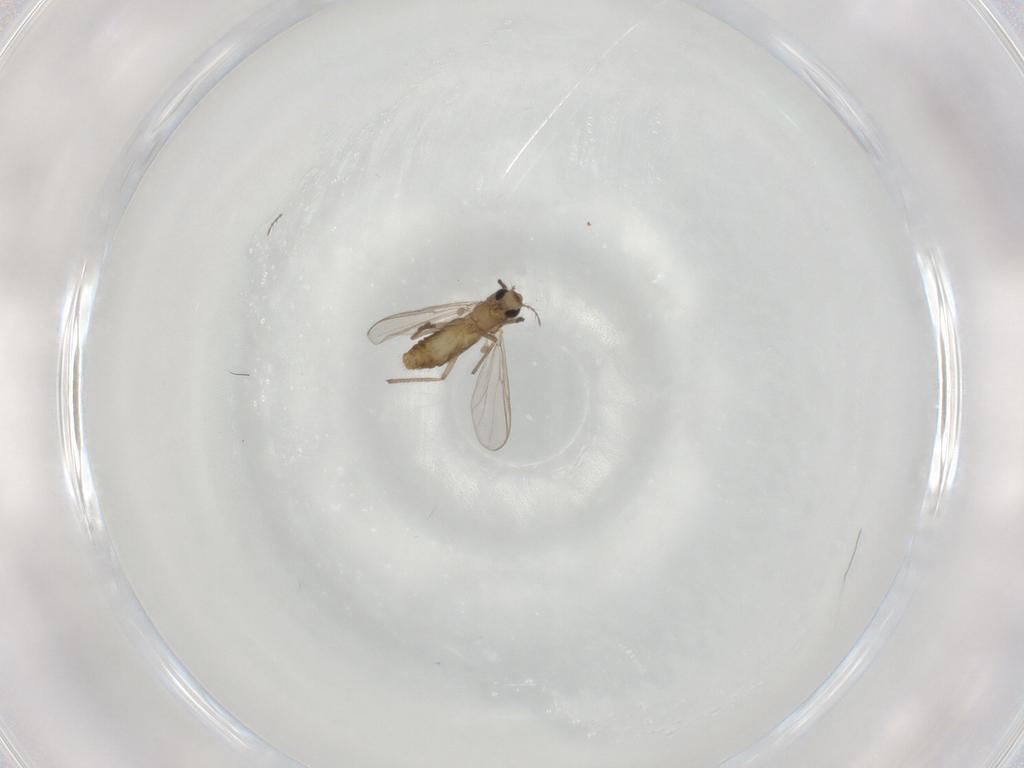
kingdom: Animalia
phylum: Arthropoda
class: Insecta
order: Diptera
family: Chironomidae
